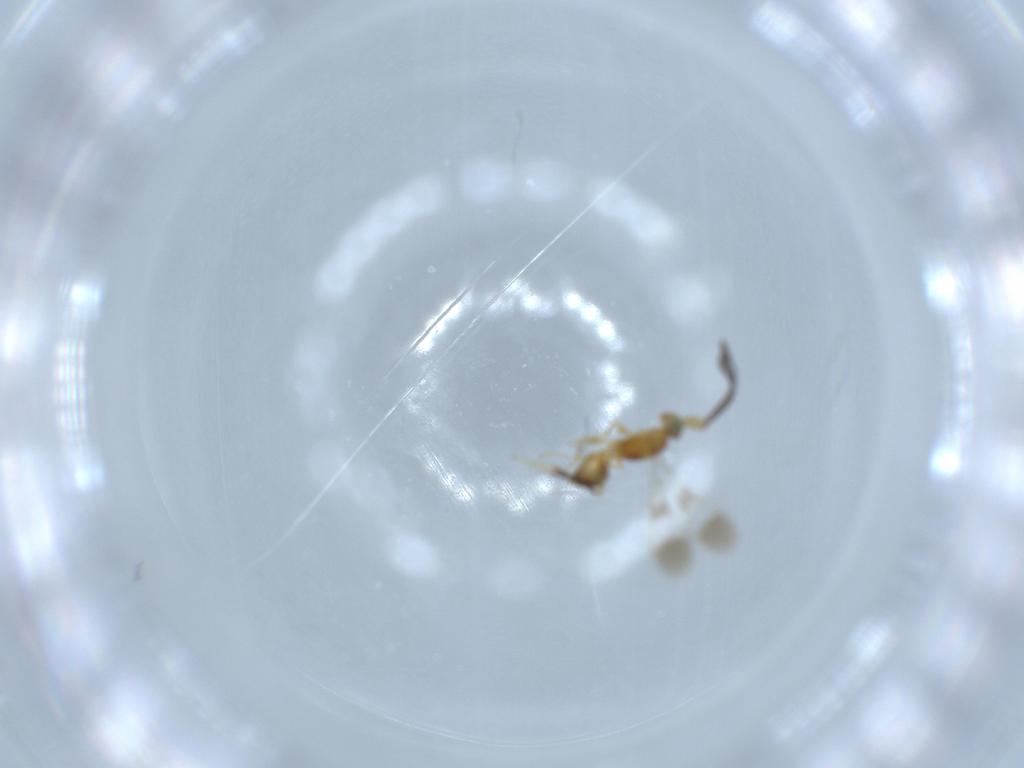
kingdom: Animalia
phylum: Arthropoda
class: Insecta
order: Hymenoptera
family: Mymaridae
